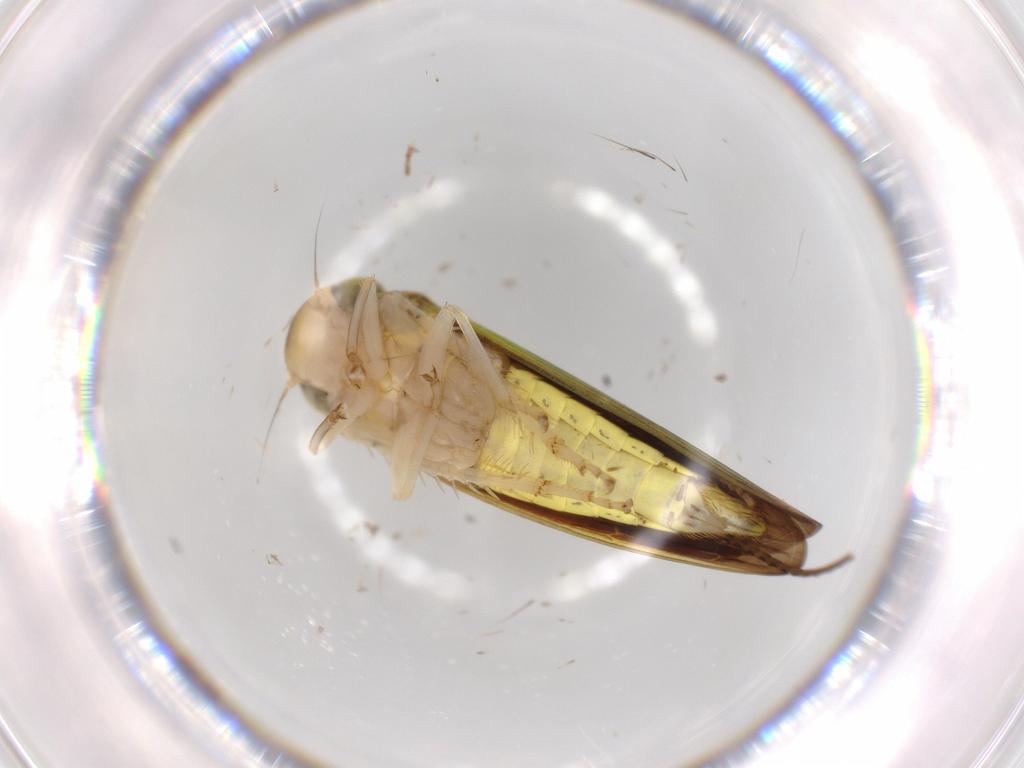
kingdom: Animalia
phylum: Arthropoda
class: Insecta
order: Hemiptera
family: Cicadellidae
